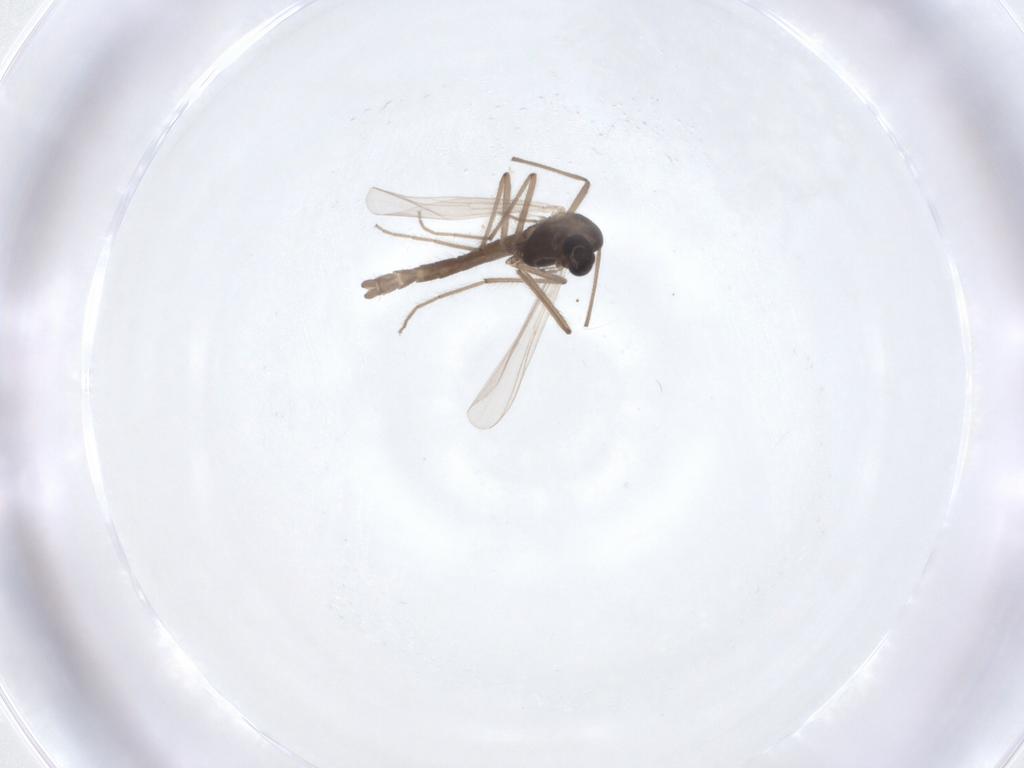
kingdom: Animalia
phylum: Arthropoda
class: Insecta
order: Diptera
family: Chironomidae
